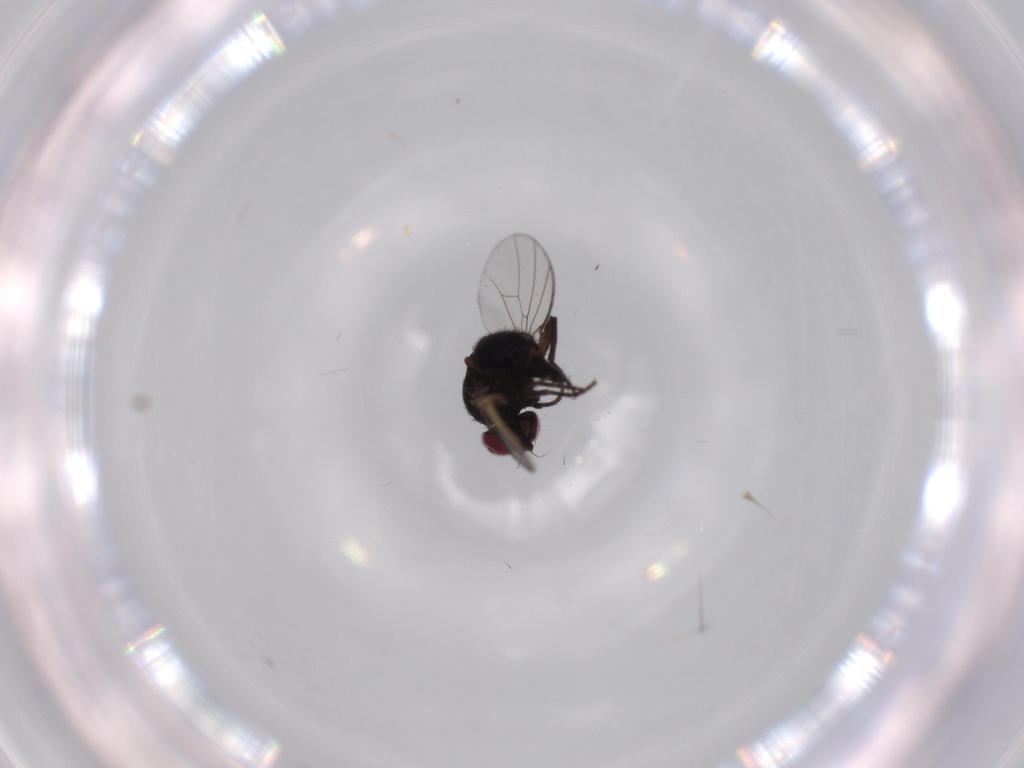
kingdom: Animalia
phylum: Arthropoda
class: Insecta
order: Diptera
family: Agromyzidae
